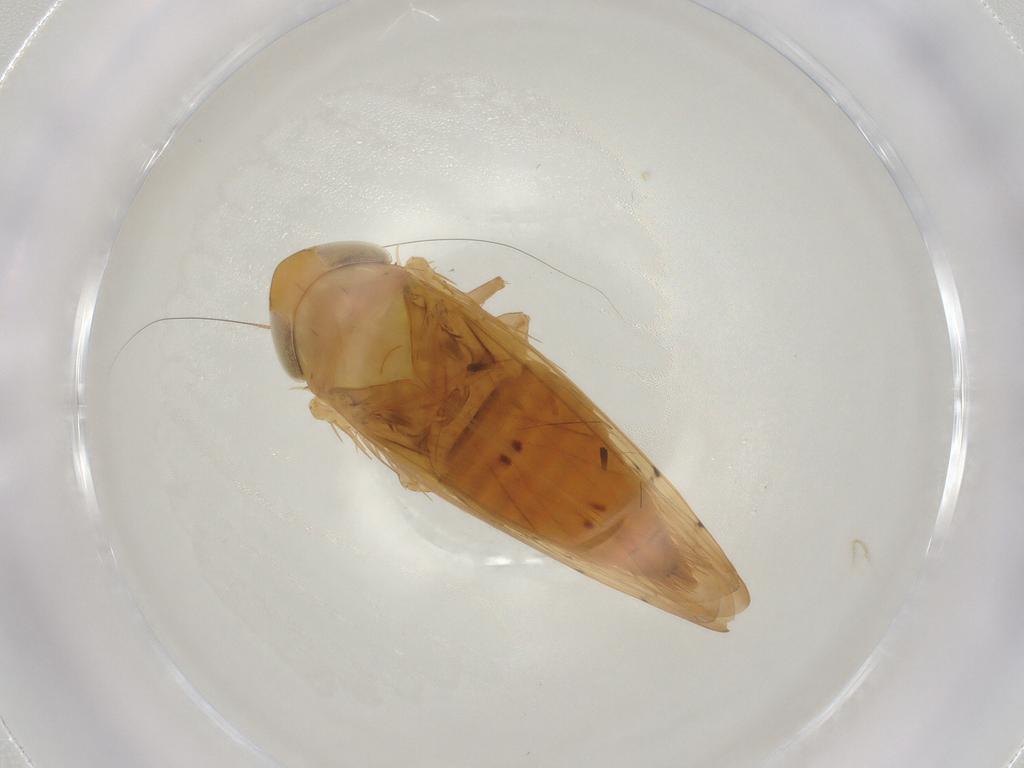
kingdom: Animalia
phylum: Arthropoda
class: Insecta
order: Hemiptera
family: Cicadellidae
